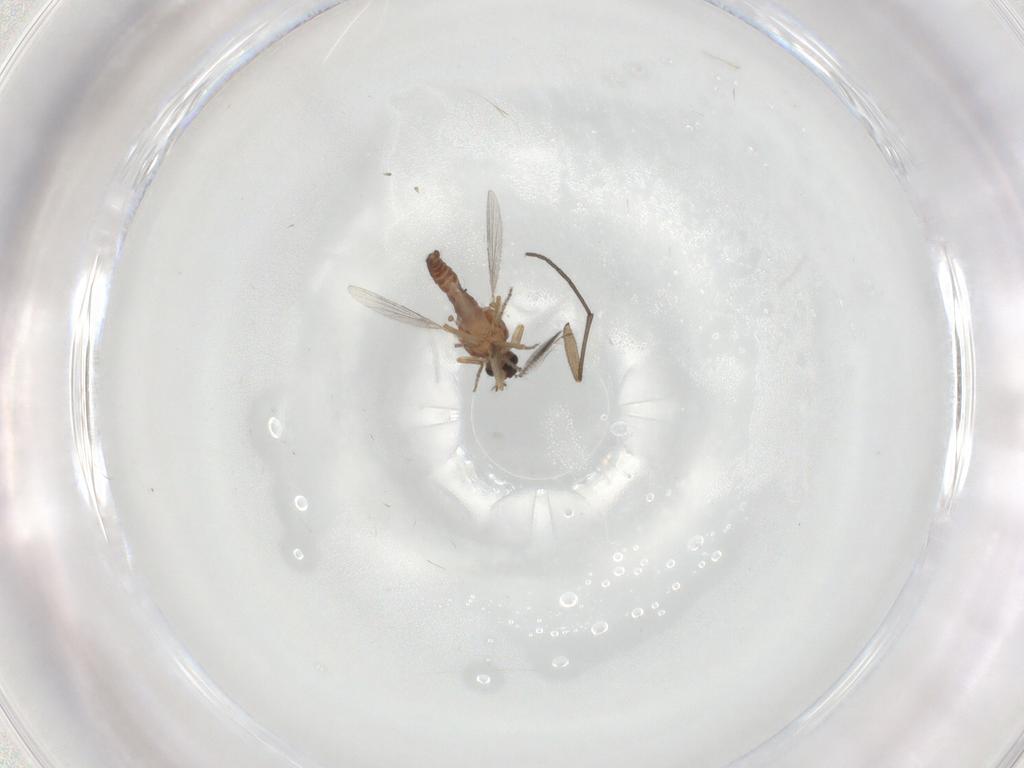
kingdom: Animalia
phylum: Arthropoda
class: Insecta
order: Diptera
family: Ceratopogonidae
